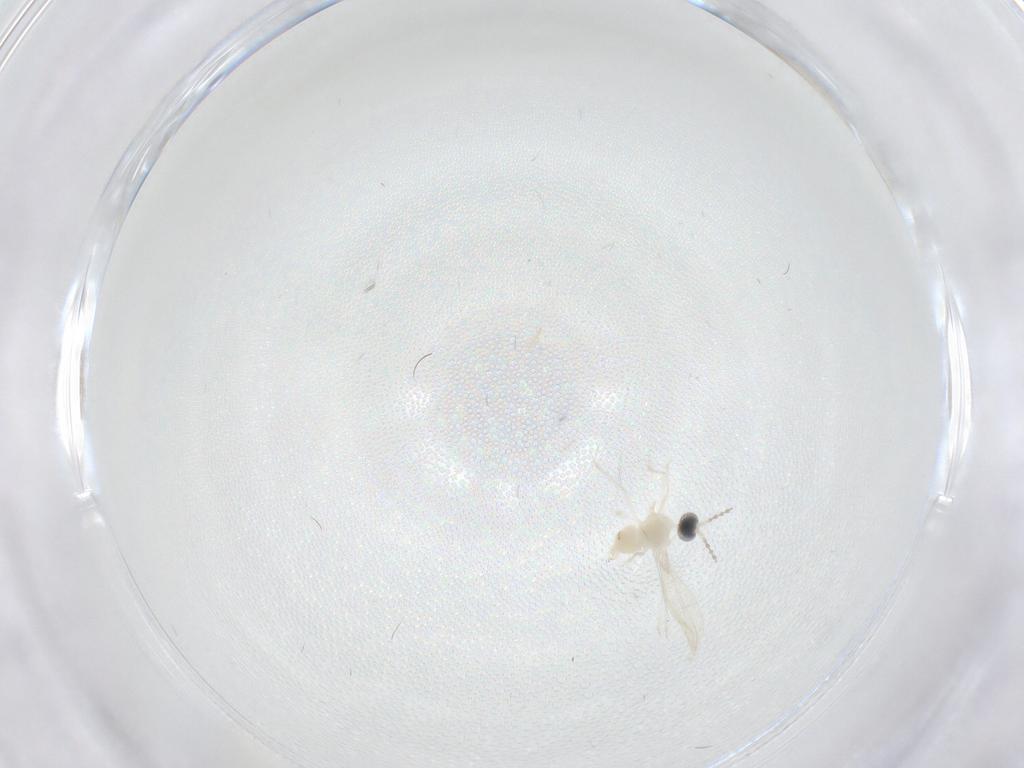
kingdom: Animalia
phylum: Arthropoda
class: Insecta
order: Diptera
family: Cecidomyiidae
